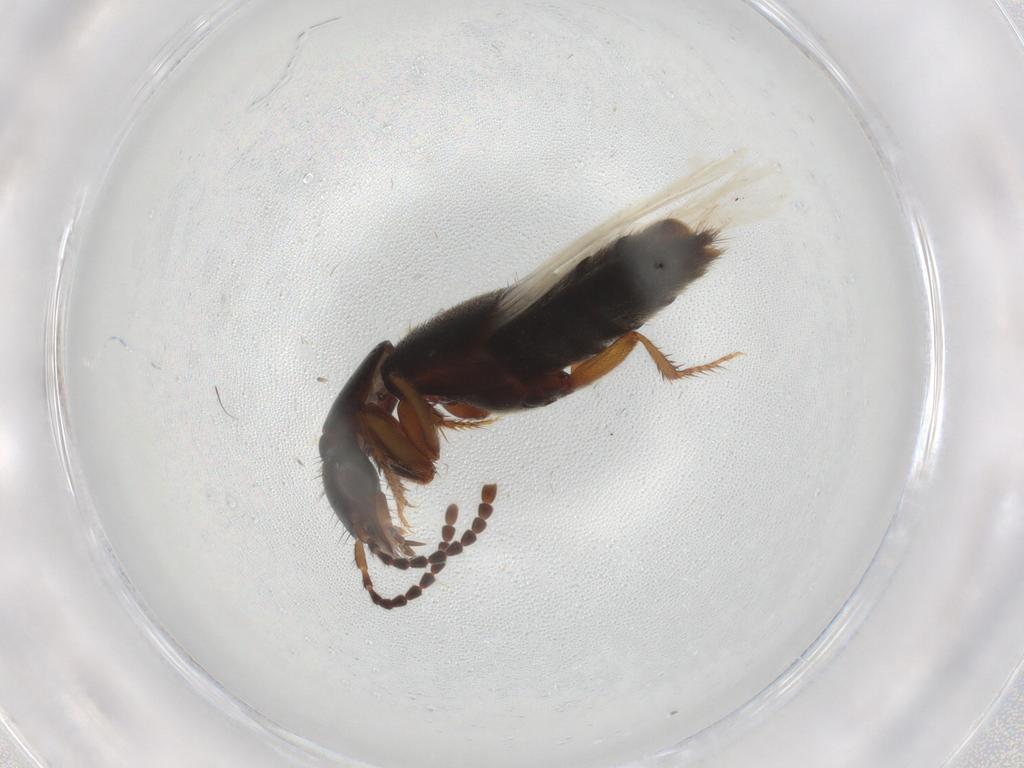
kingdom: Animalia
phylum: Arthropoda
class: Insecta
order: Coleoptera
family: Staphylinidae
